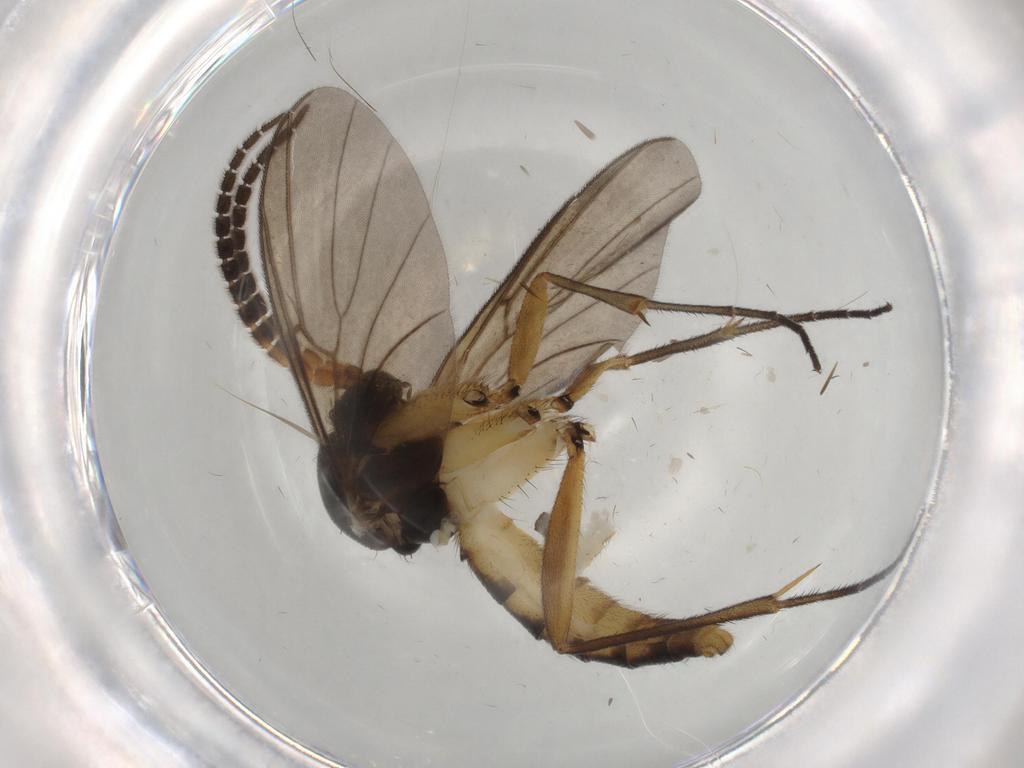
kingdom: Animalia
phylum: Arthropoda
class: Insecta
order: Diptera
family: Cecidomyiidae
